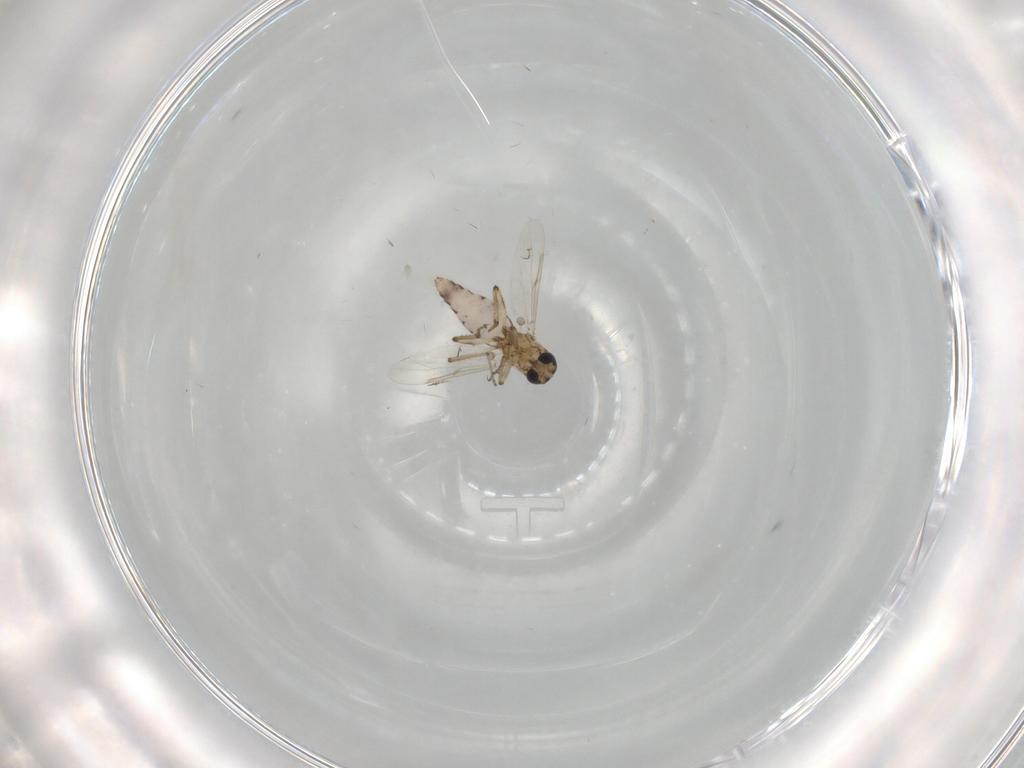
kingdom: Animalia
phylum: Arthropoda
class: Insecta
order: Diptera
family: Ceratopogonidae
